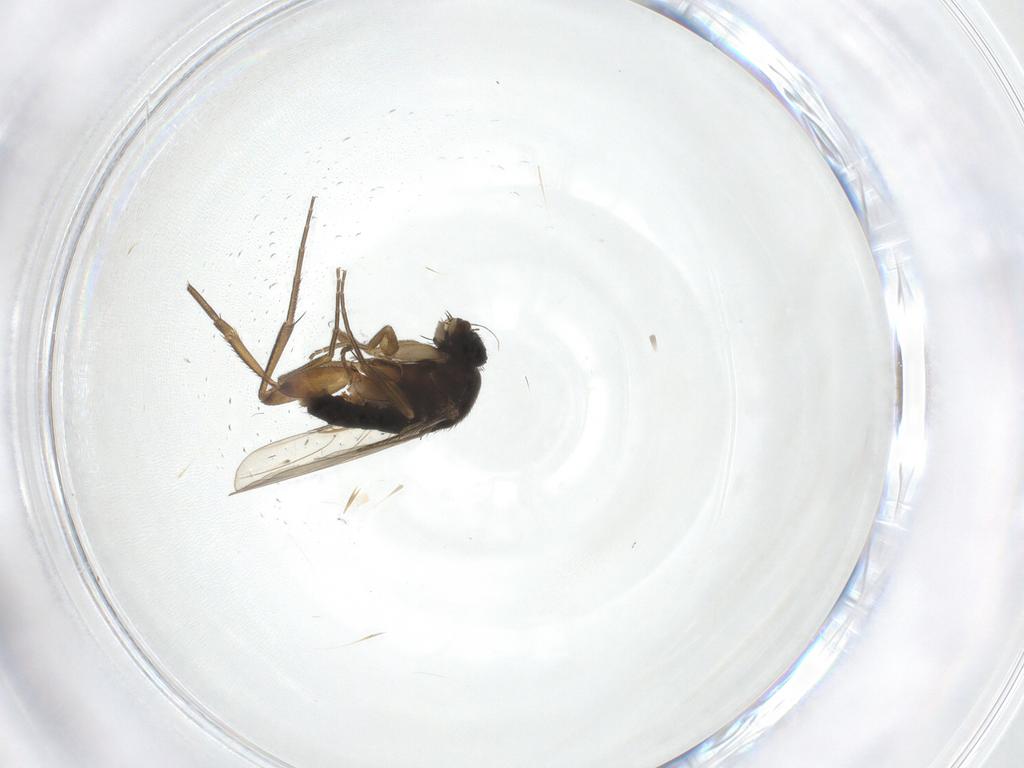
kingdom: Animalia
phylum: Arthropoda
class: Insecta
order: Diptera
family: Phoridae
